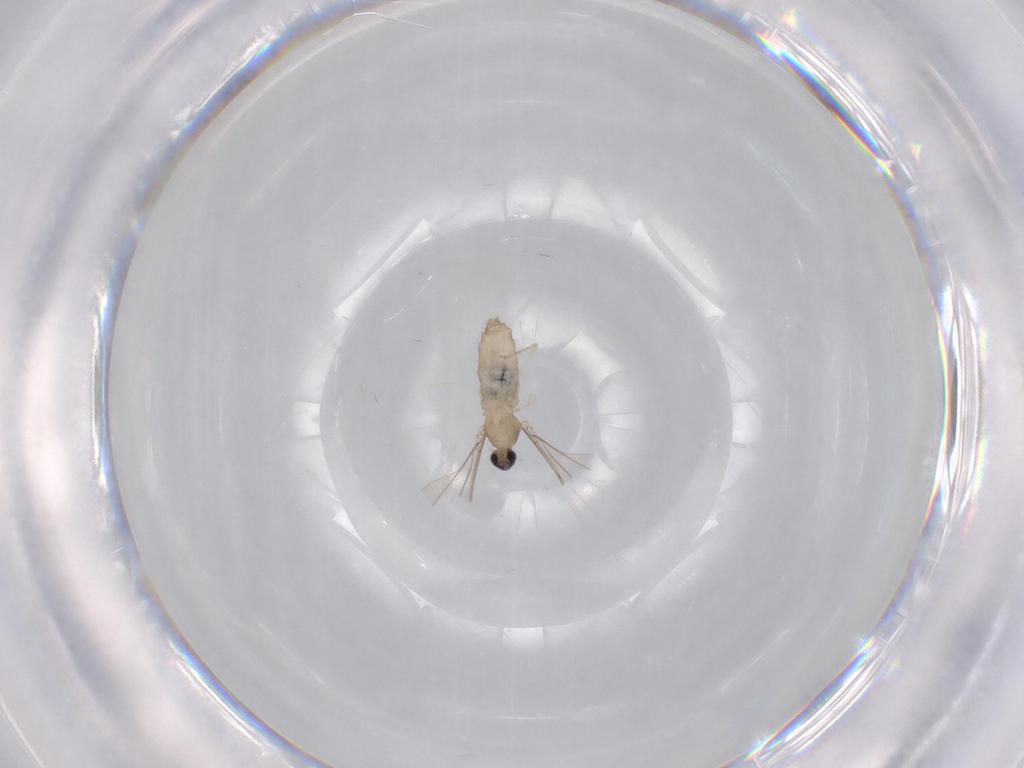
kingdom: Animalia
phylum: Arthropoda
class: Insecta
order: Diptera
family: Cecidomyiidae
